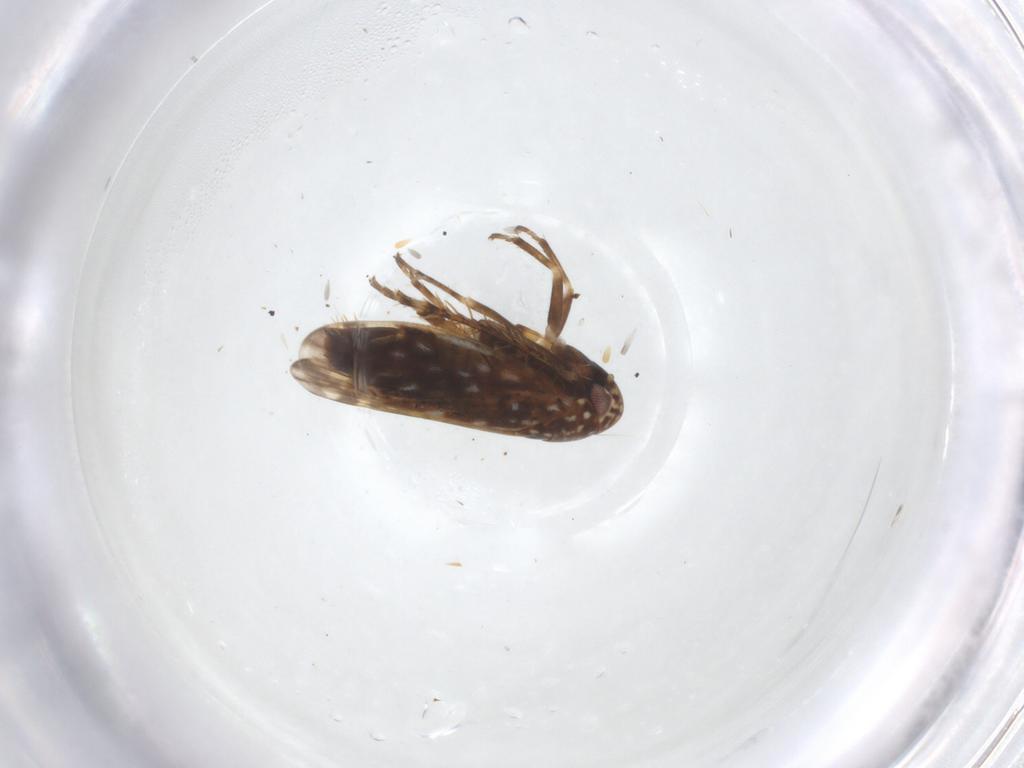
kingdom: Animalia
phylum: Arthropoda
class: Insecta
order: Hemiptera
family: Cicadellidae
